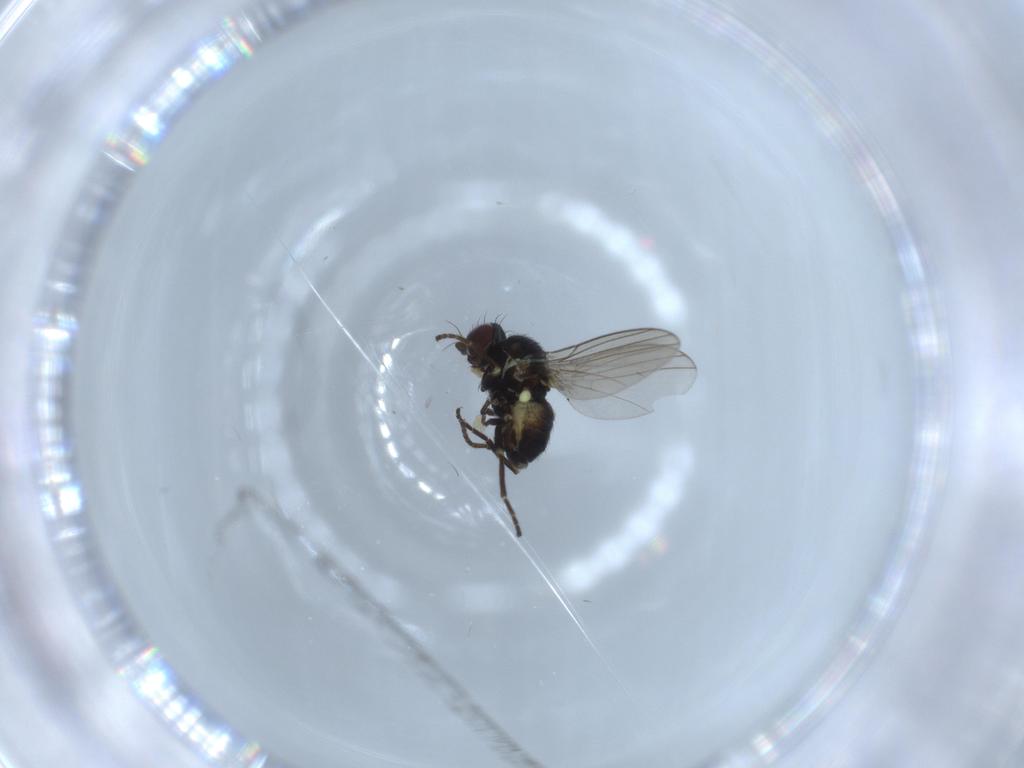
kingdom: Animalia
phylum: Arthropoda
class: Insecta
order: Diptera
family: Agromyzidae
